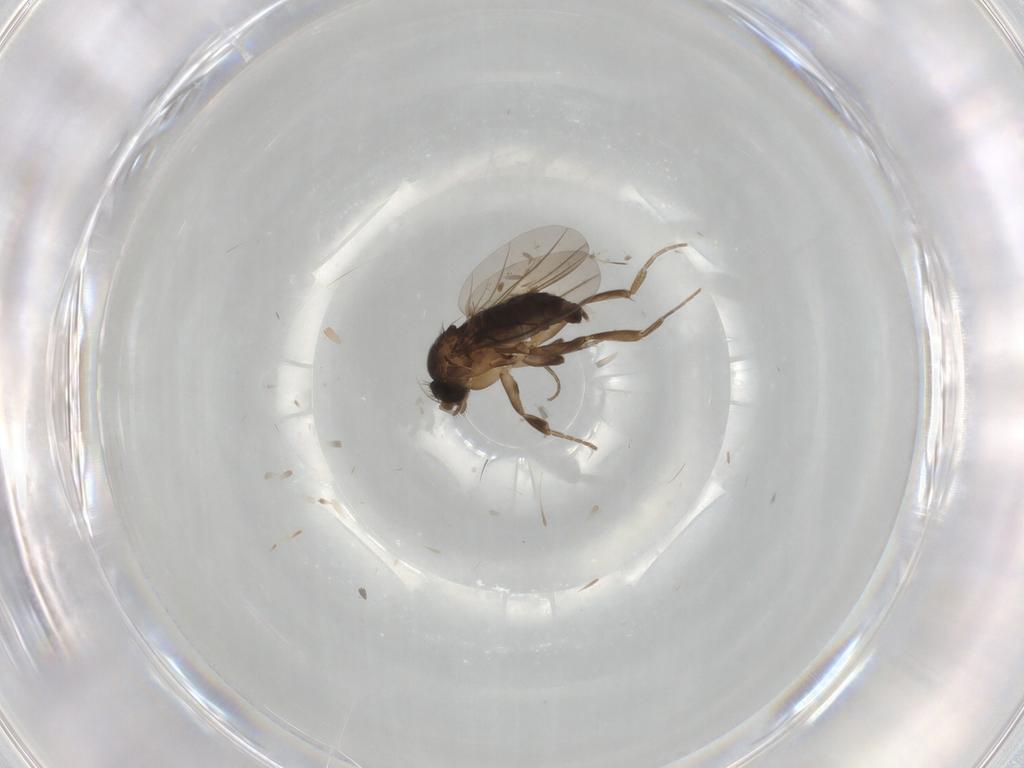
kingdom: Animalia
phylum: Arthropoda
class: Insecta
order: Diptera
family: Phoridae
